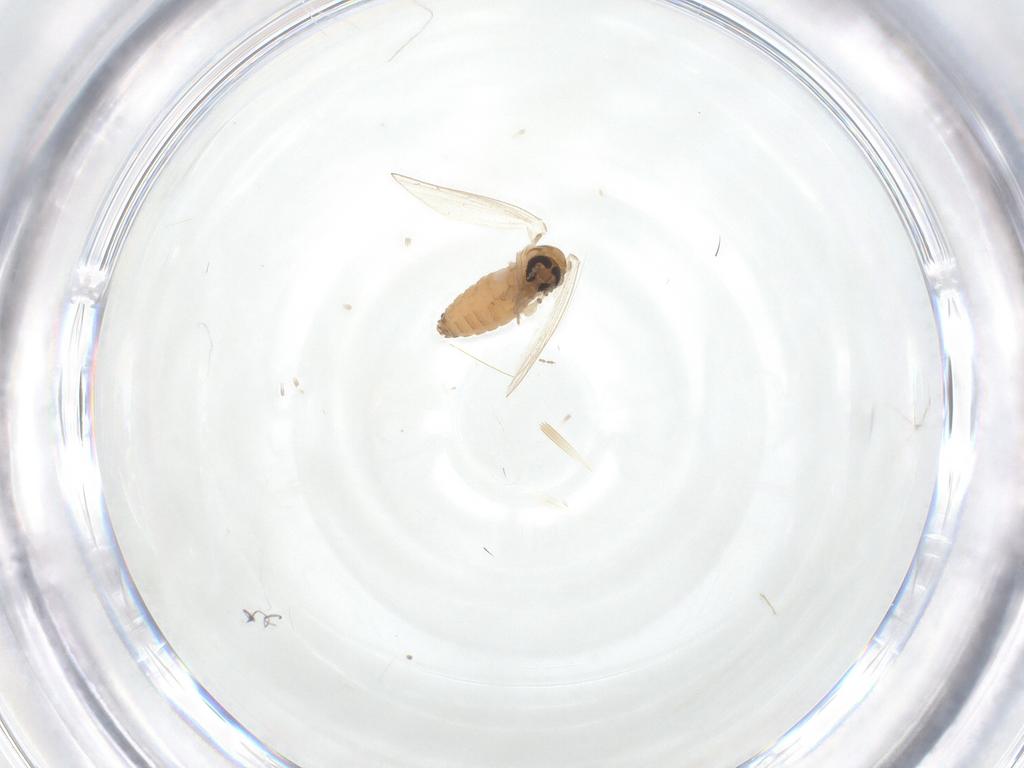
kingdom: Animalia
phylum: Arthropoda
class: Insecta
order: Diptera
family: Psychodidae
